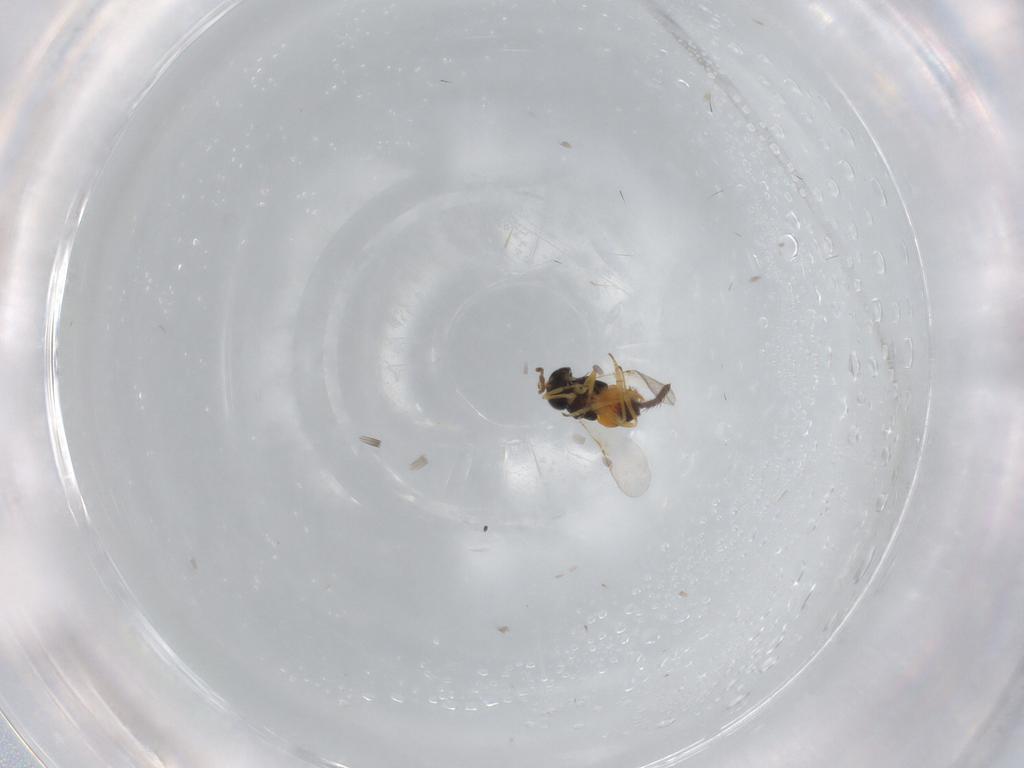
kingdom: Animalia
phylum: Arthropoda
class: Insecta
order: Hymenoptera
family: Encyrtidae
